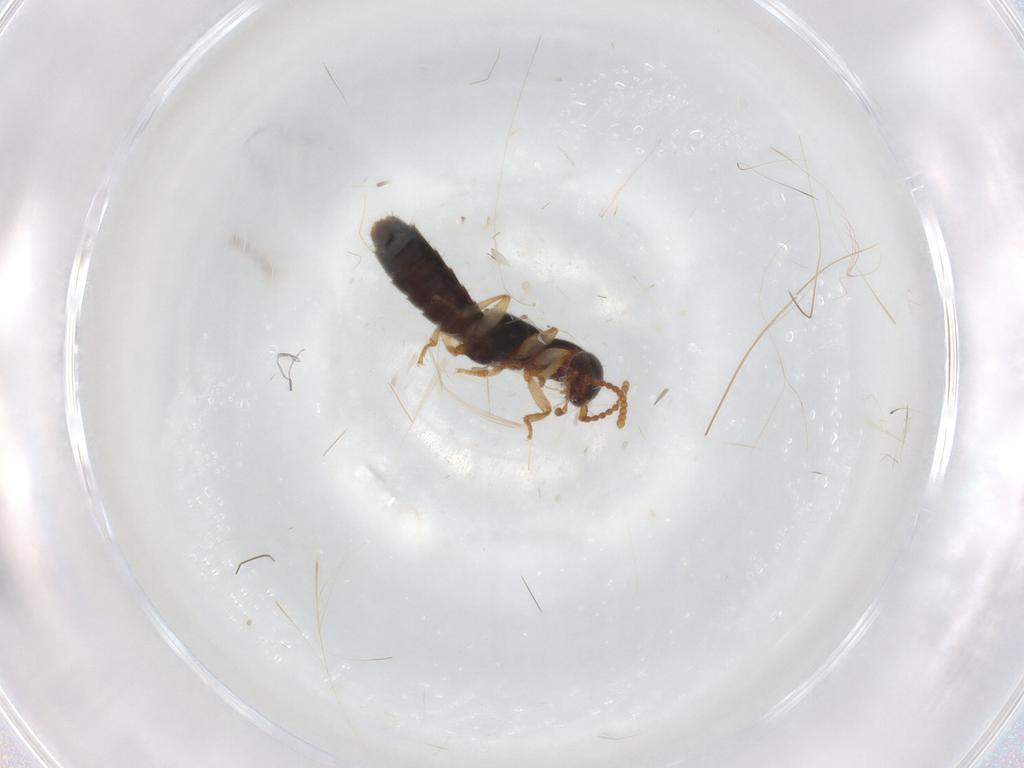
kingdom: Animalia
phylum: Arthropoda
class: Insecta
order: Coleoptera
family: Staphylinidae
